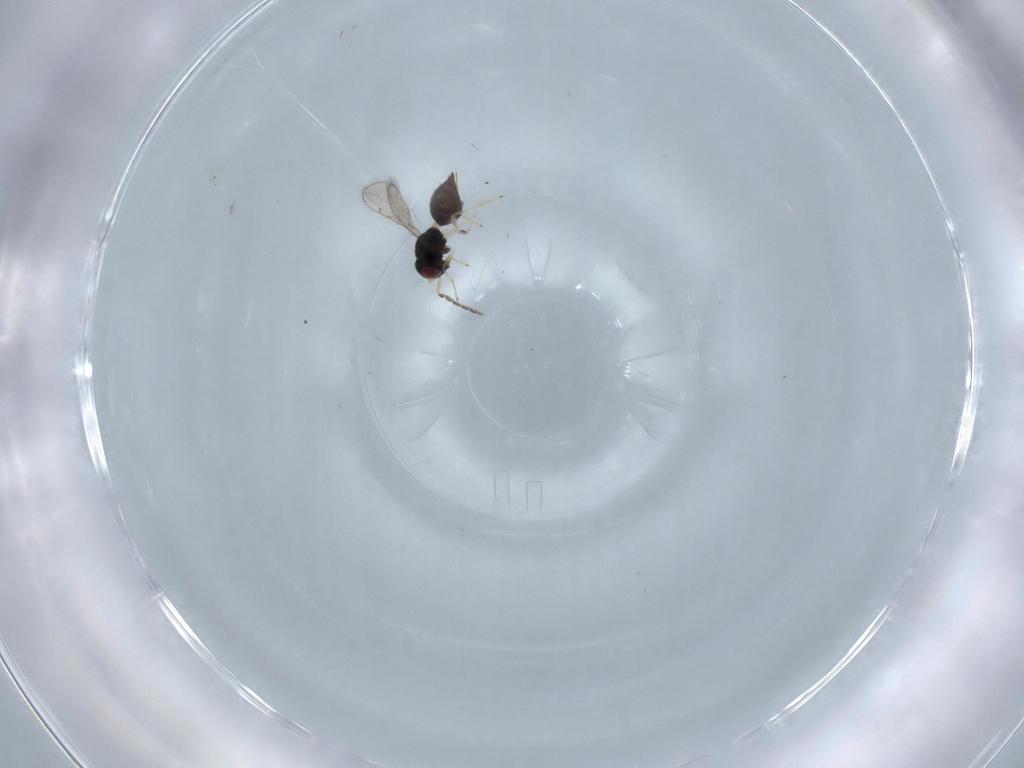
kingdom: Animalia
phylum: Arthropoda
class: Insecta
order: Hymenoptera
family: Eulophidae
